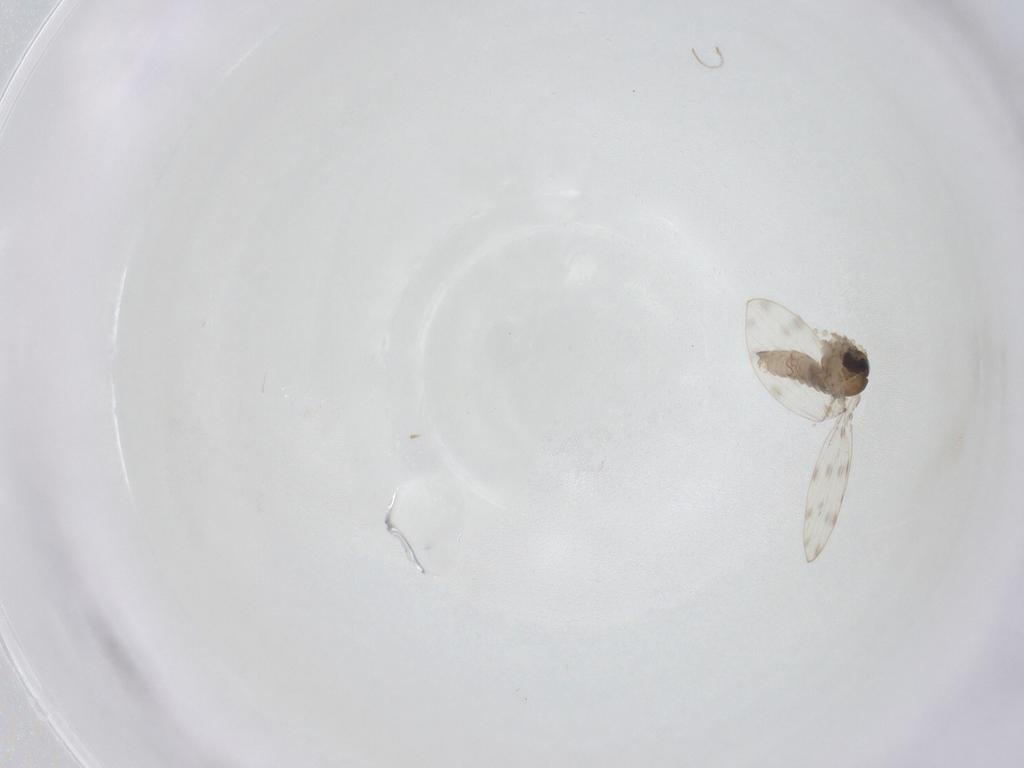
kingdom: Animalia
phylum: Arthropoda
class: Insecta
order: Diptera
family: Psychodidae
